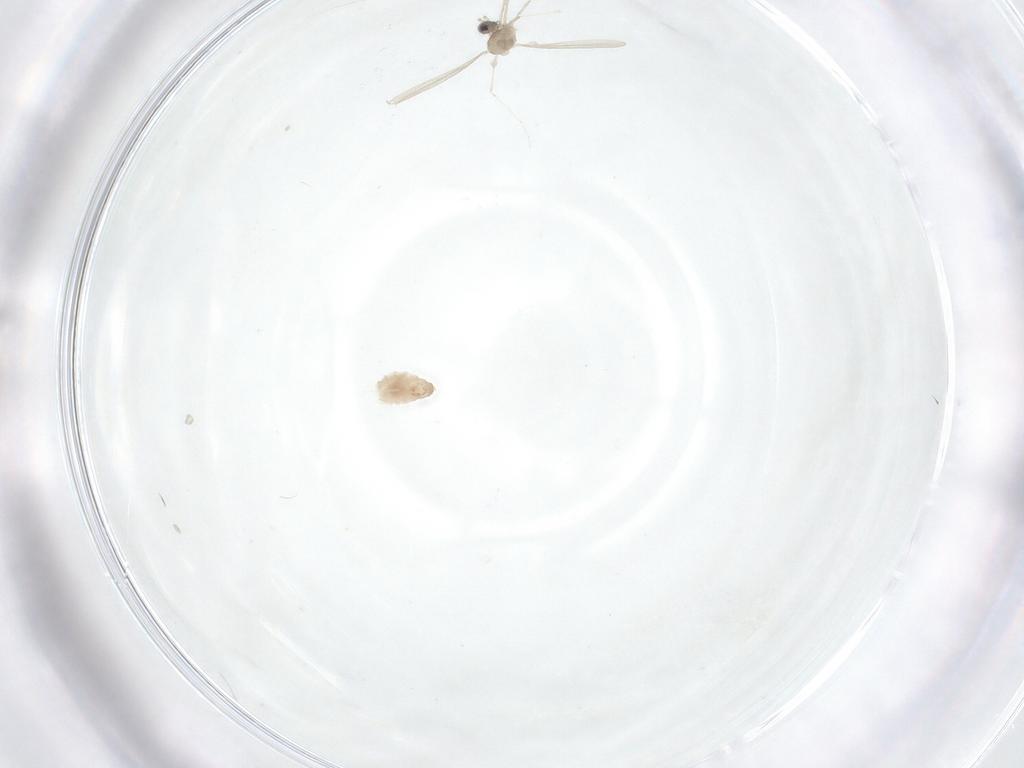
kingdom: Animalia
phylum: Arthropoda
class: Insecta
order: Diptera
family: Cecidomyiidae
